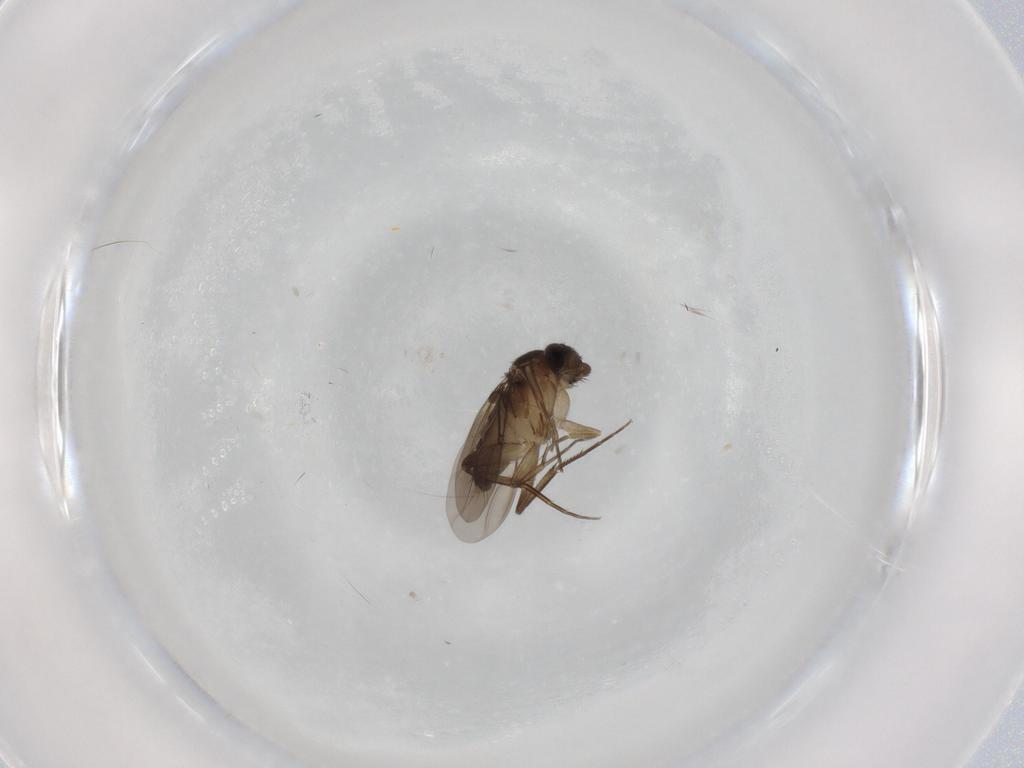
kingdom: Animalia
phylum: Arthropoda
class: Insecta
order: Diptera
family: Phoridae
